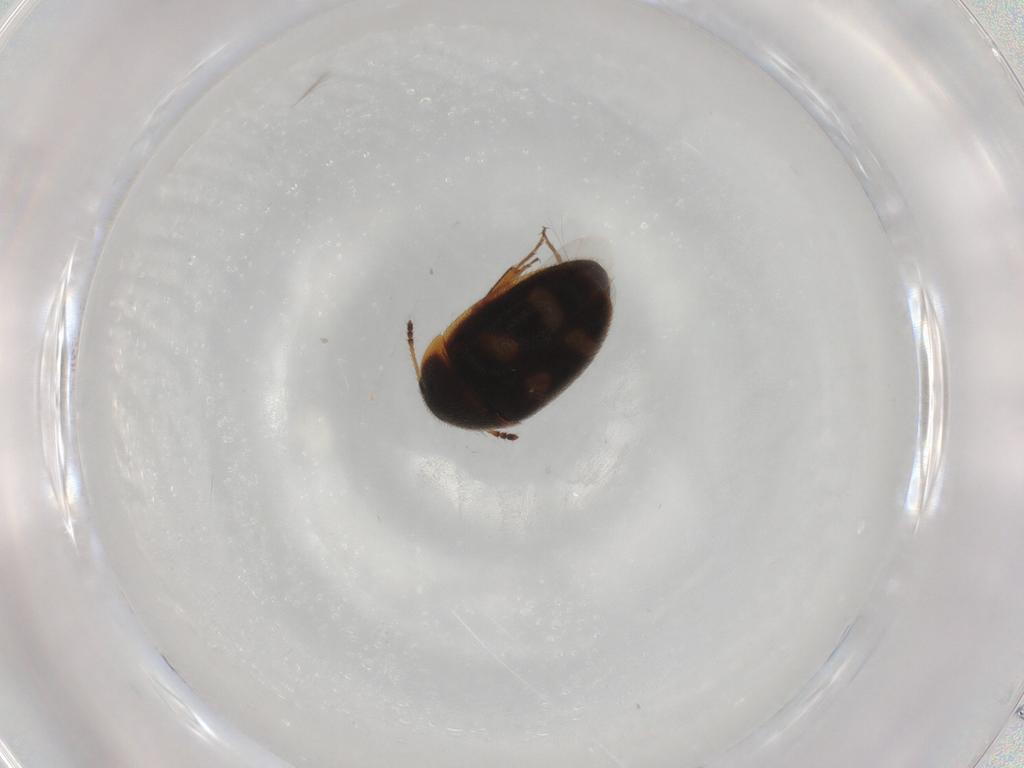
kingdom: Animalia
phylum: Arthropoda
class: Insecta
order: Coleoptera
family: Mycetophagidae
